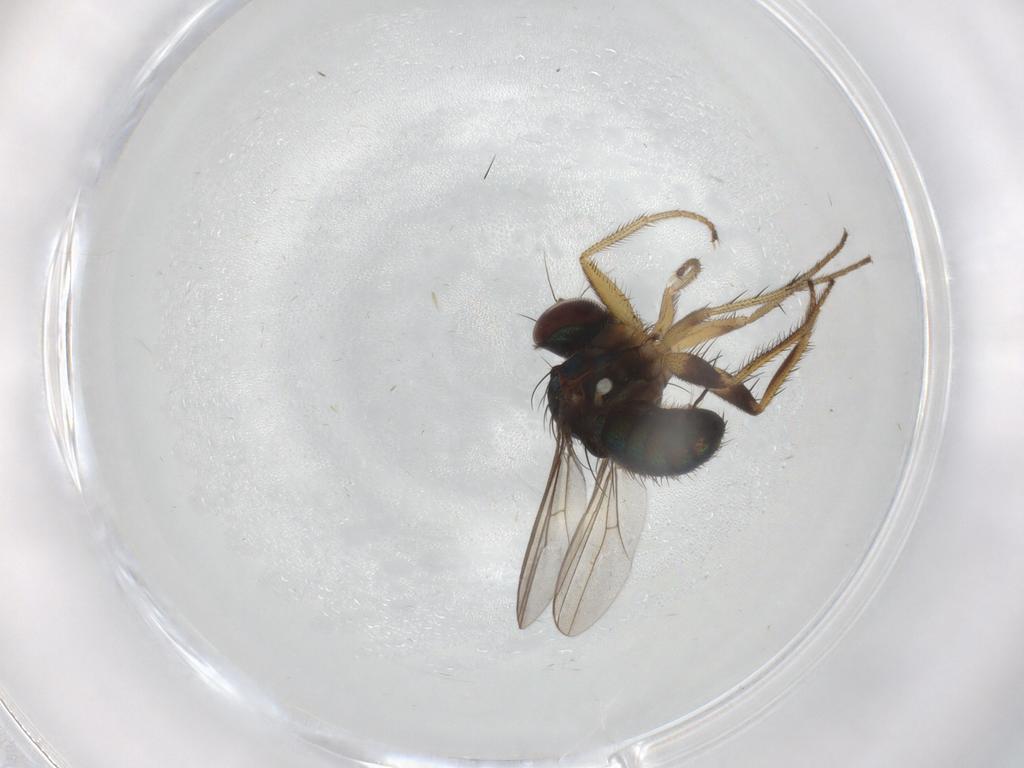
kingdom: Animalia
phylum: Arthropoda
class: Insecta
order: Diptera
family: Dolichopodidae
